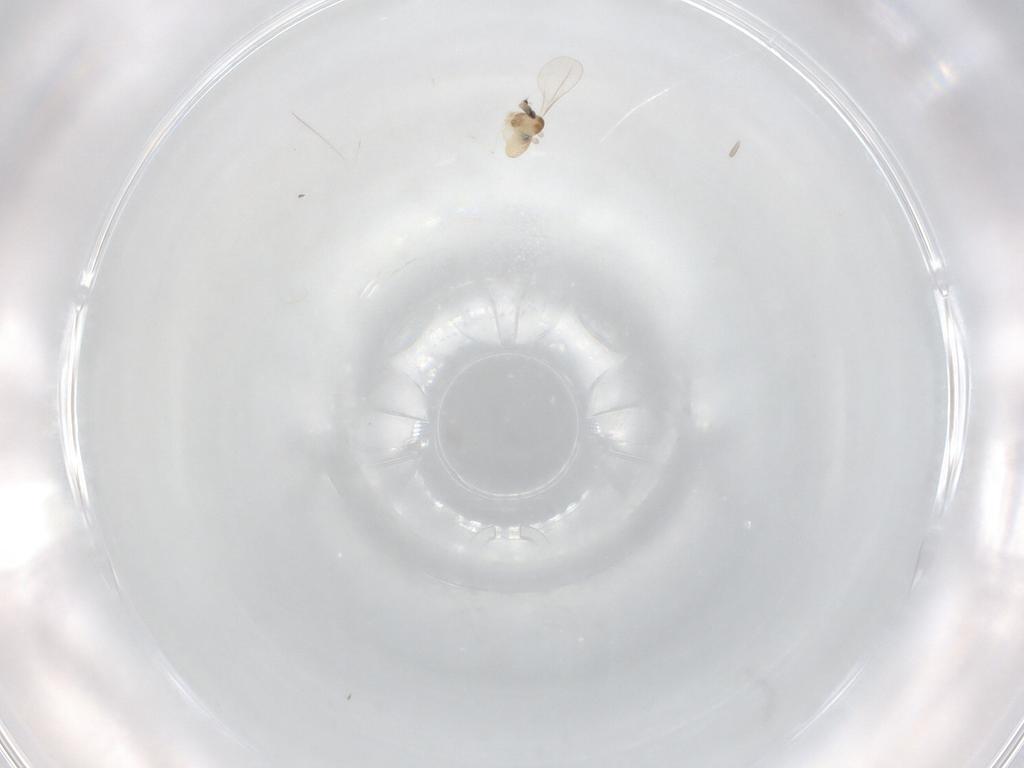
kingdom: Animalia
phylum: Arthropoda
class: Insecta
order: Diptera
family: Cecidomyiidae
